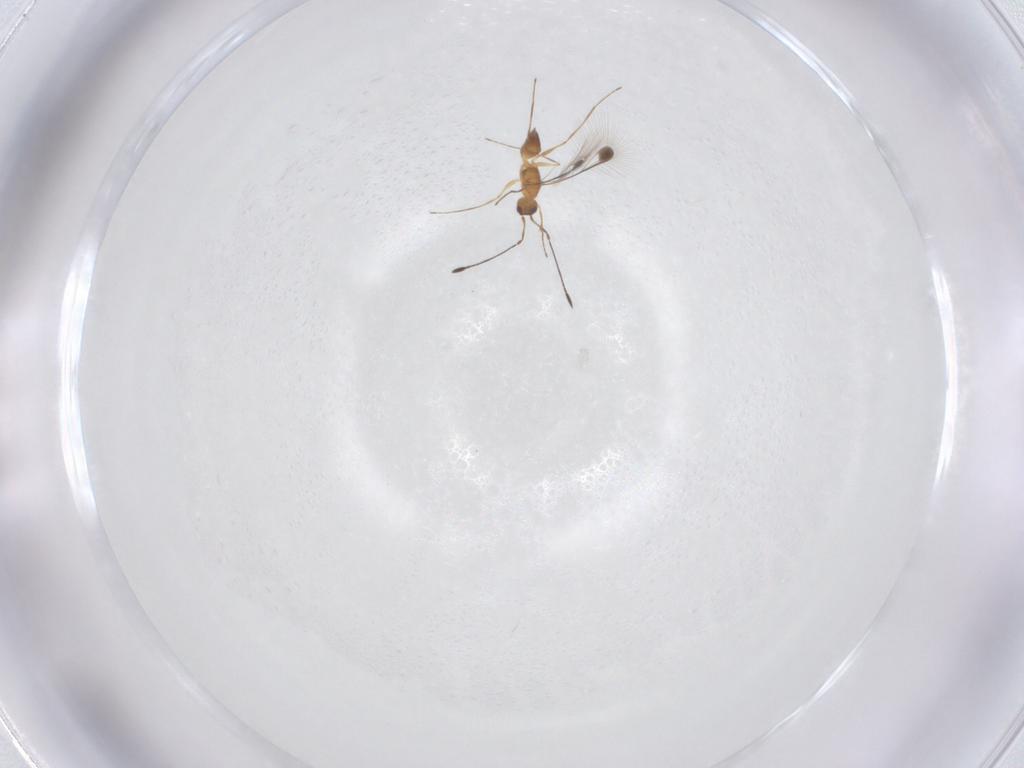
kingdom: Animalia
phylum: Arthropoda
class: Insecta
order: Hymenoptera
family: Mymaridae
